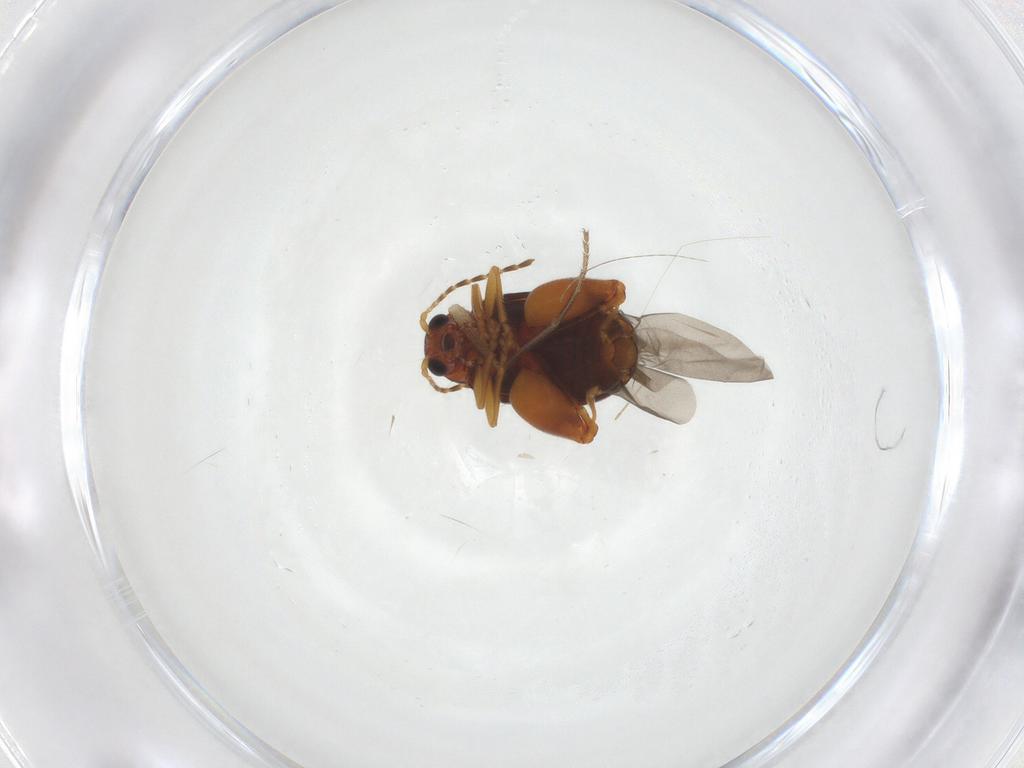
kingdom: Animalia
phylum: Arthropoda
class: Insecta
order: Coleoptera
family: Chrysomelidae
